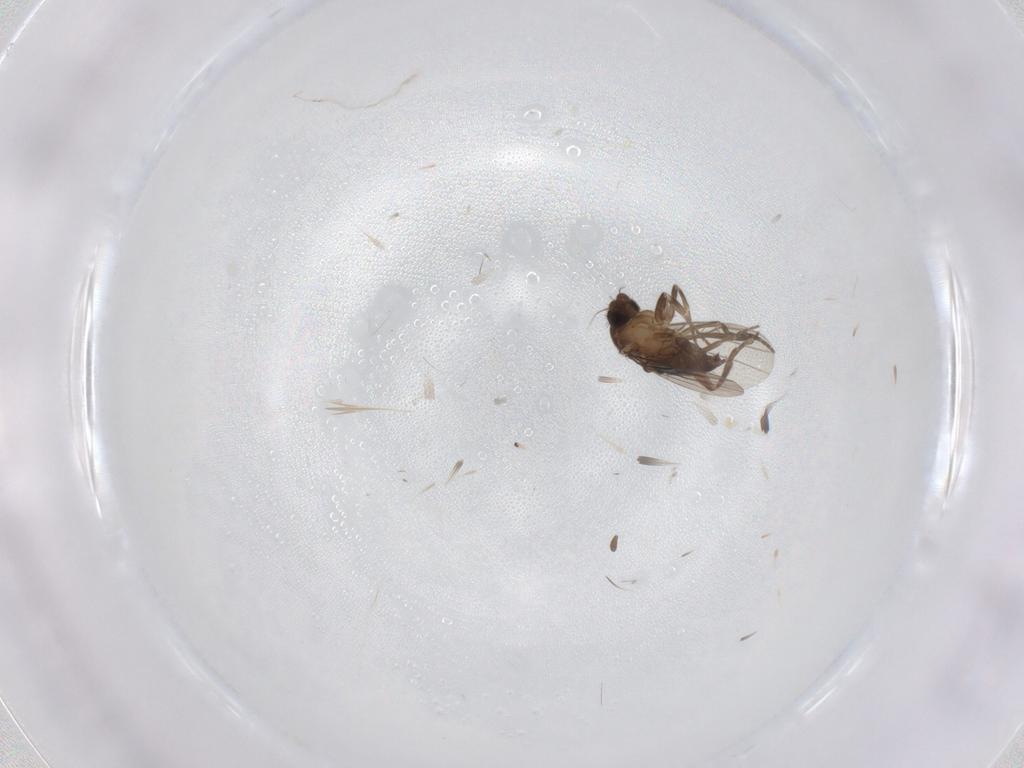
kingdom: Animalia
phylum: Arthropoda
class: Insecta
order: Diptera
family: Phoridae
